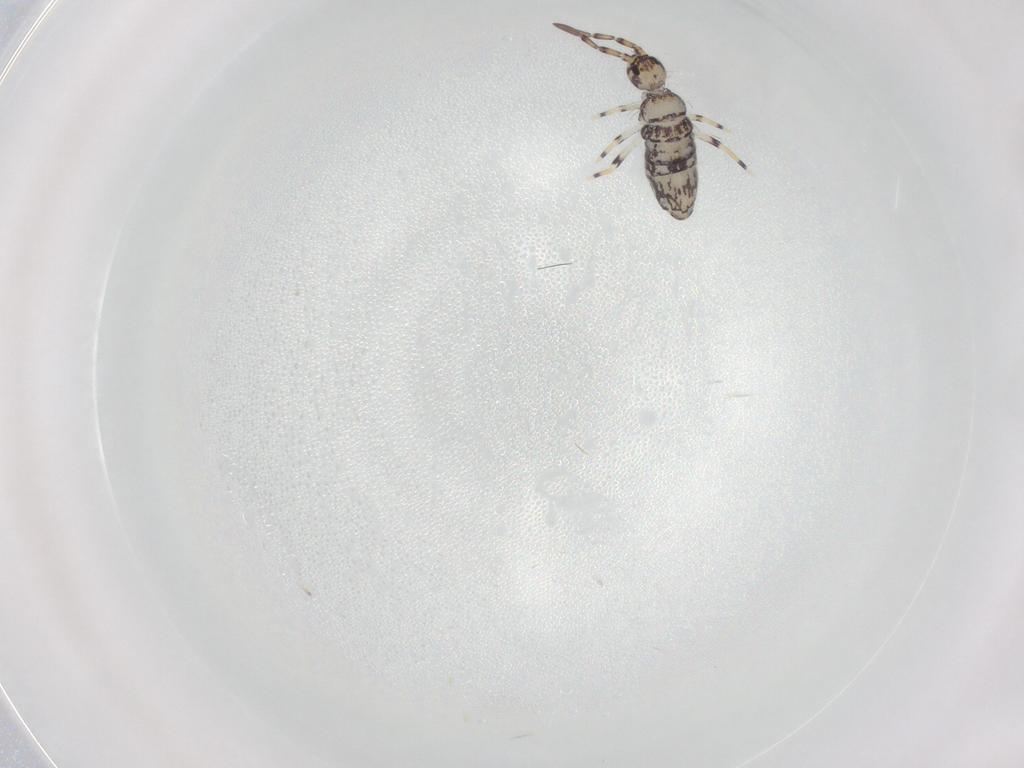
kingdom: Animalia
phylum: Arthropoda
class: Collembola
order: Entomobryomorpha
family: Entomobryidae
